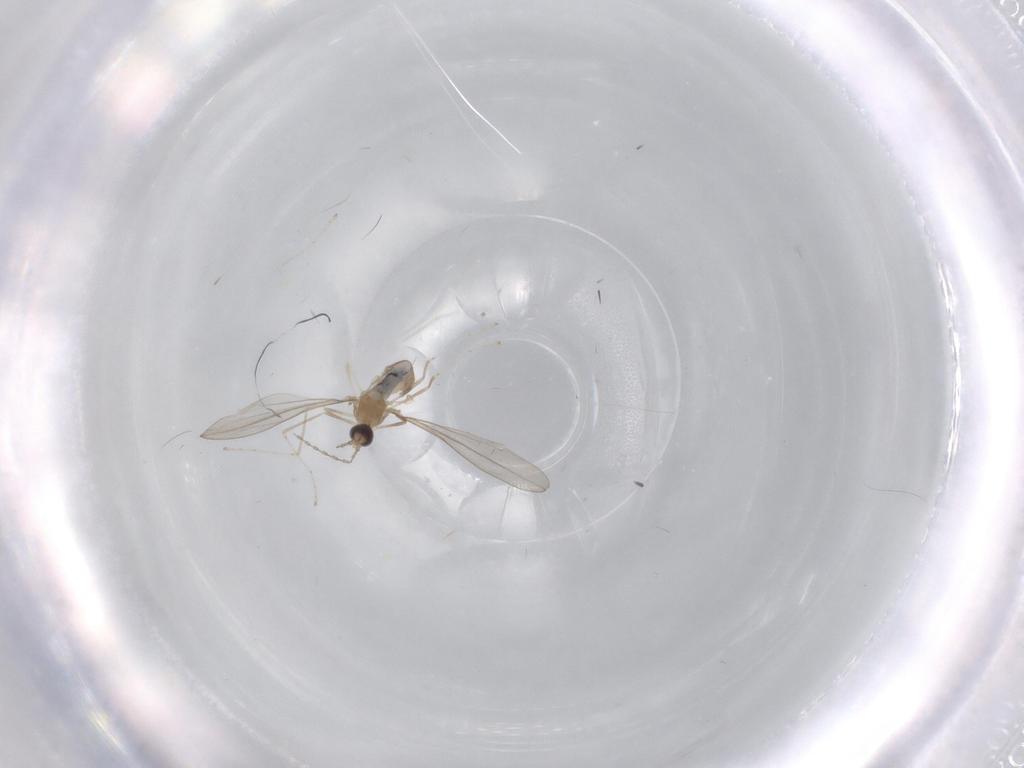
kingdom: Animalia
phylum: Arthropoda
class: Insecta
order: Diptera
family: Cecidomyiidae
